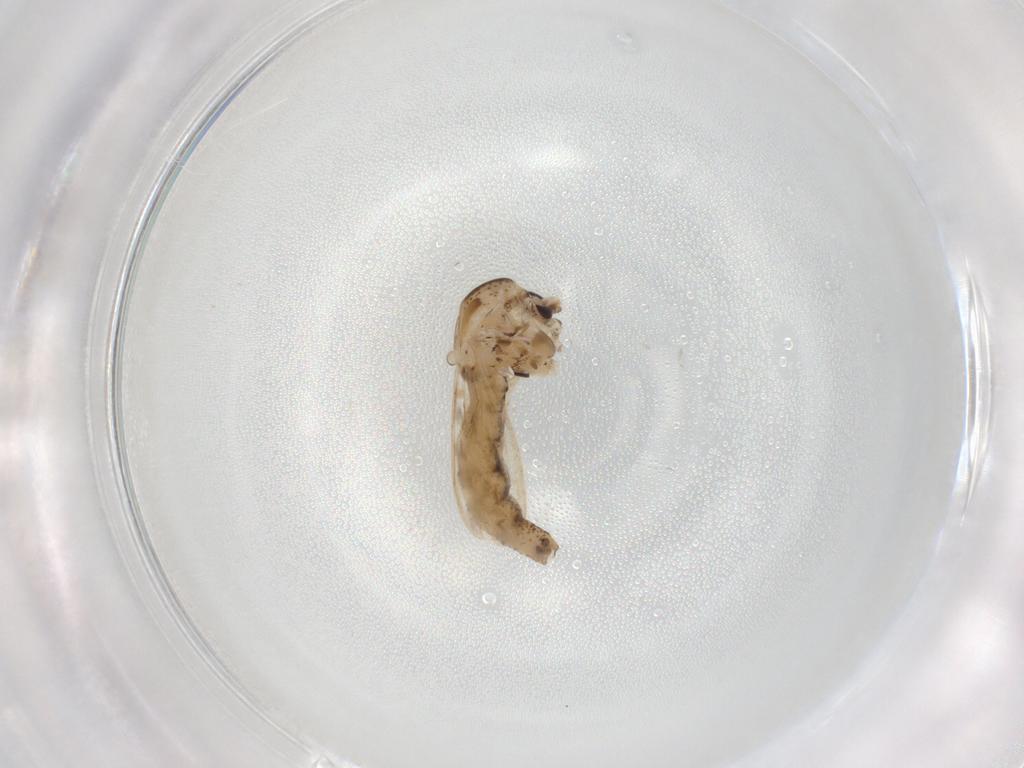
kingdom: Animalia
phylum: Arthropoda
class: Insecta
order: Diptera
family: Chaoboridae
